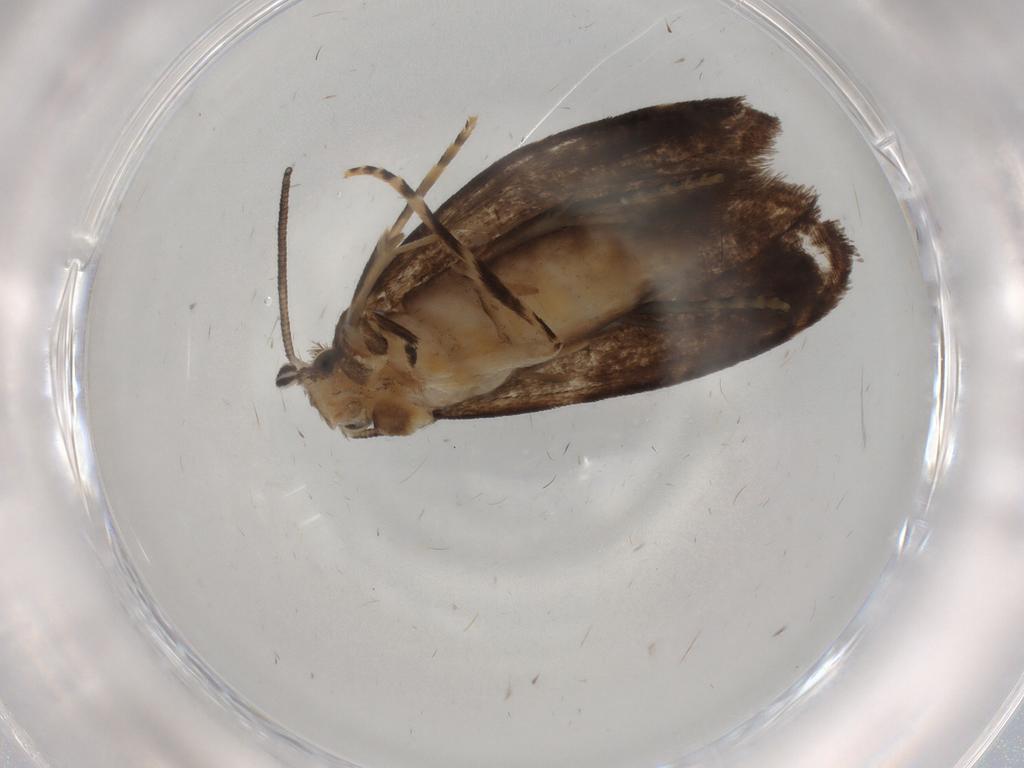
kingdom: Animalia
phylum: Arthropoda
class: Insecta
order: Lepidoptera
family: Dryadaulidae
